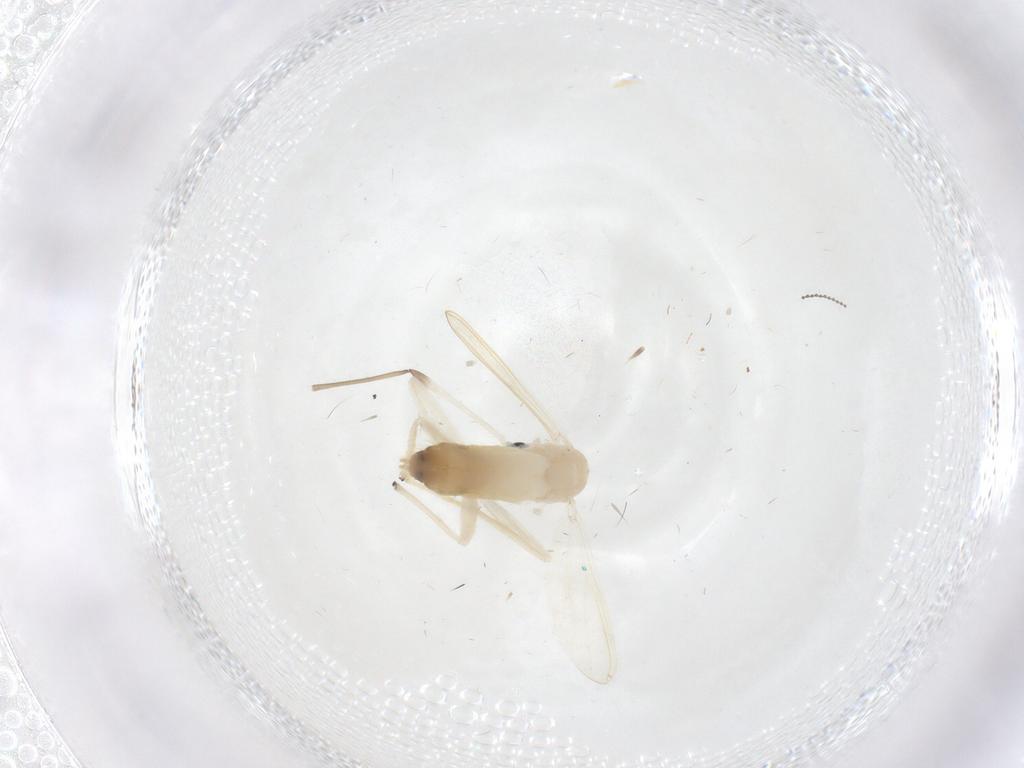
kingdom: Animalia
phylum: Arthropoda
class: Insecta
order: Diptera
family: Chironomidae
